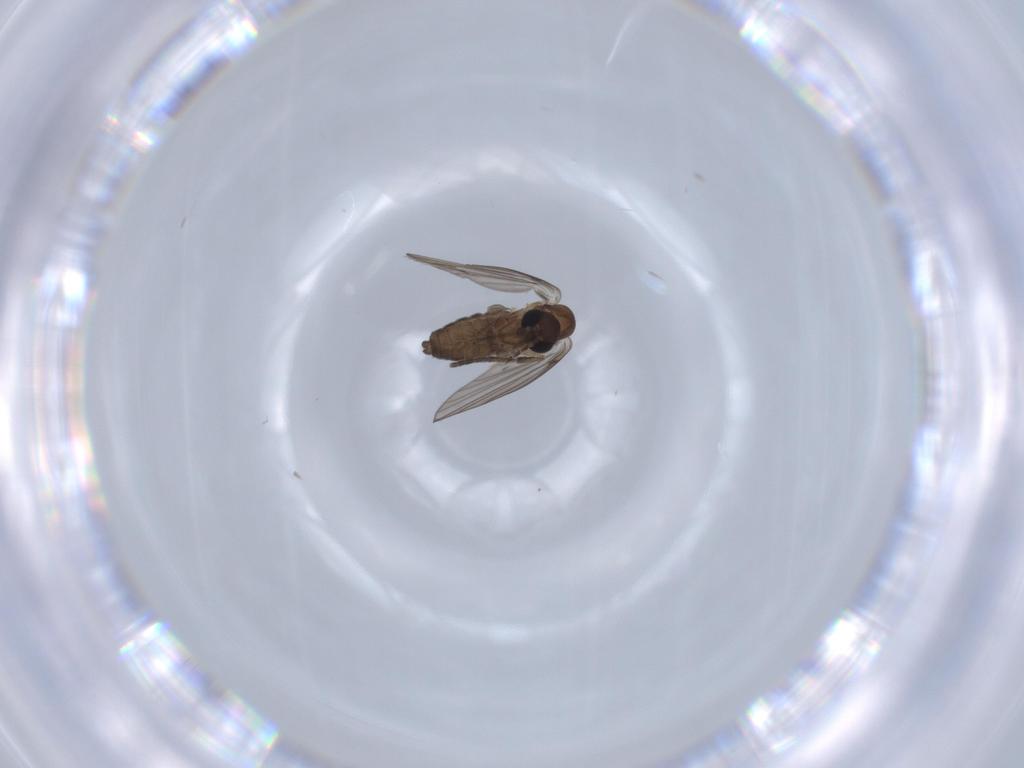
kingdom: Animalia
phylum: Arthropoda
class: Insecta
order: Diptera
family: Psychodidae
